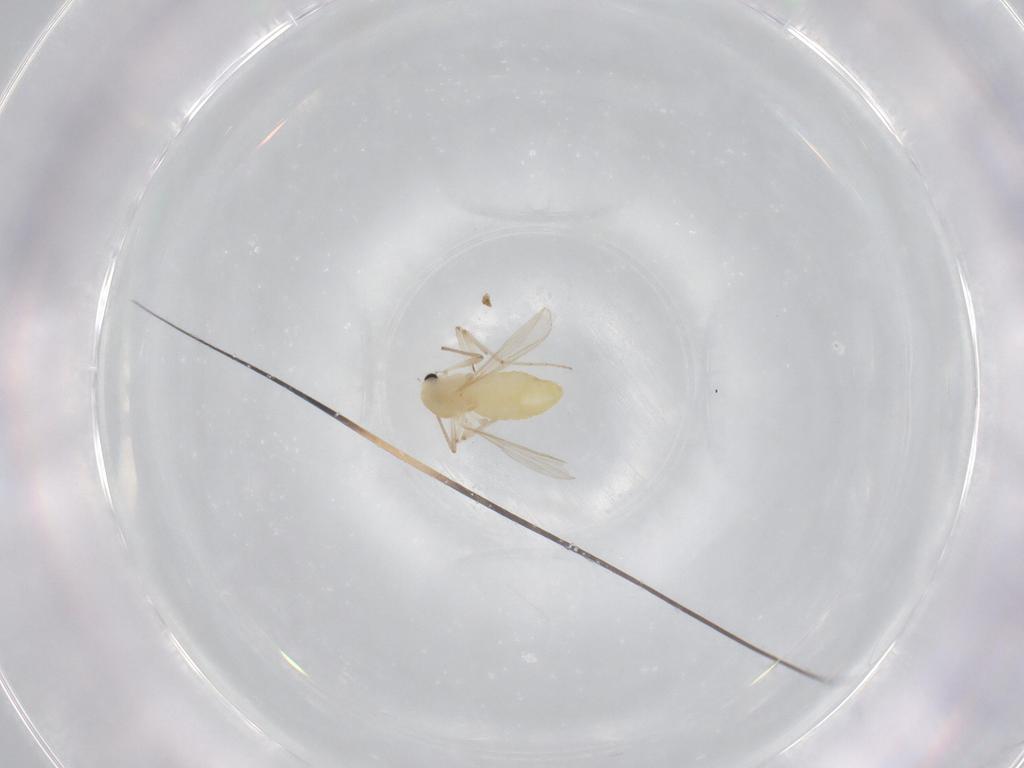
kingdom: Animalia
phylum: Arthropoda
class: Insecta
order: Diptera
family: Chironomidae
